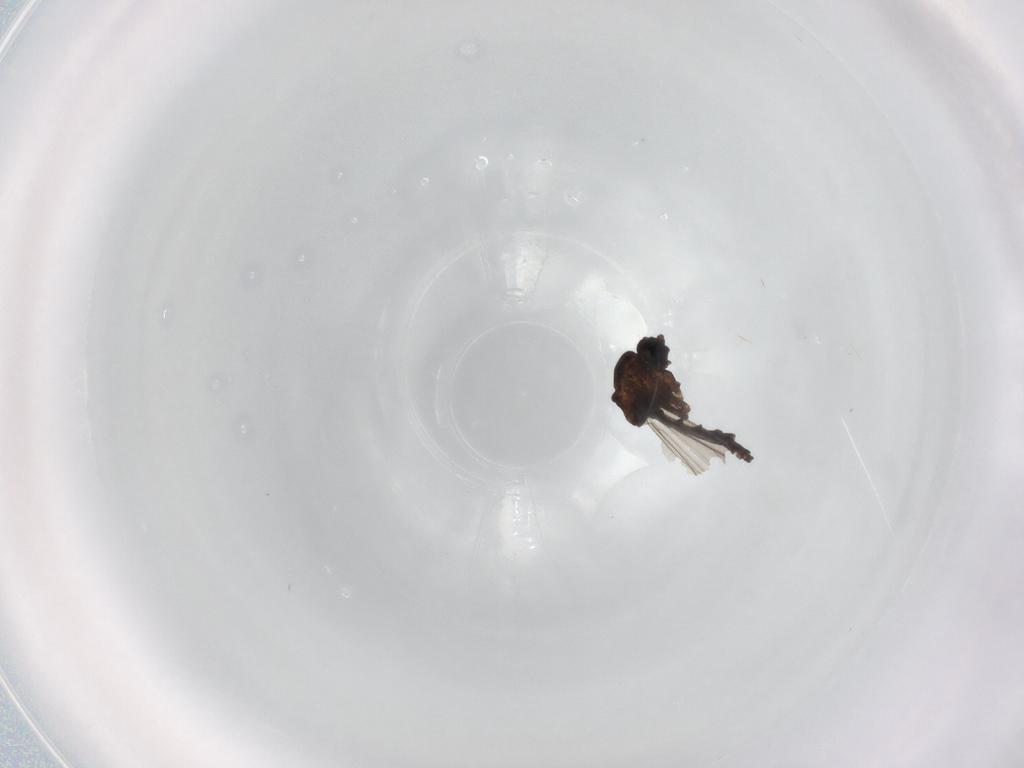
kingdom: Animalia
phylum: Arthropoda
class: Insecta
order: Diptera
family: Sciaridae
